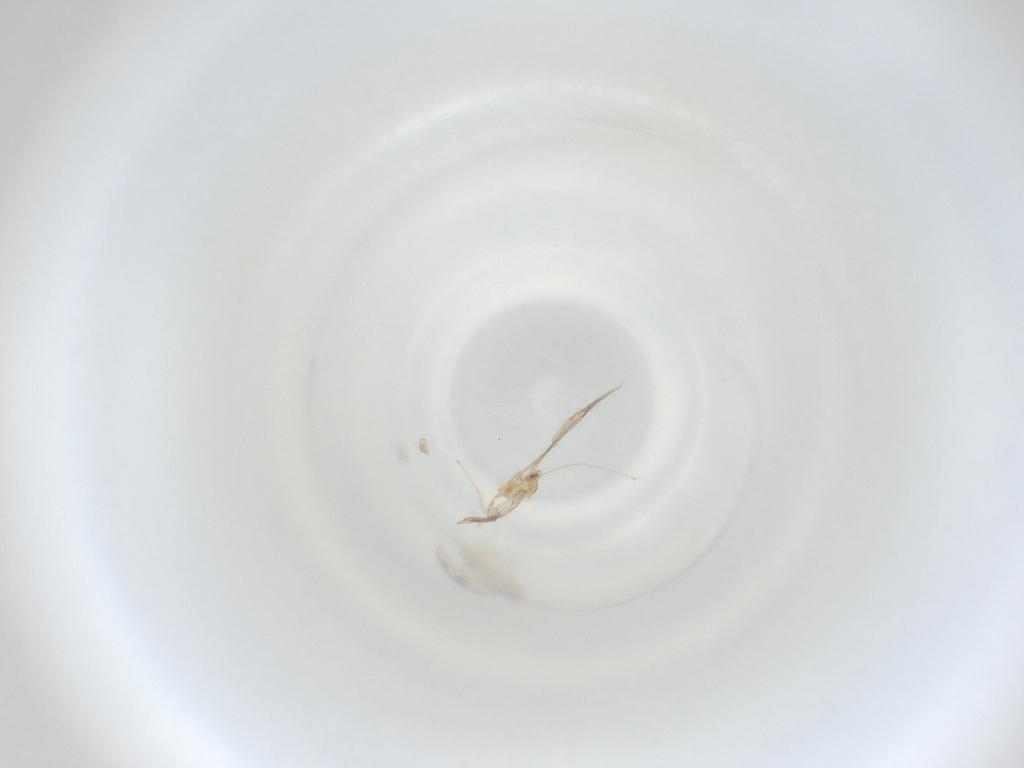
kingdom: Animalia
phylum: Arthropoda
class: Insecta
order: Diptera
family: Cecidomyiidae
